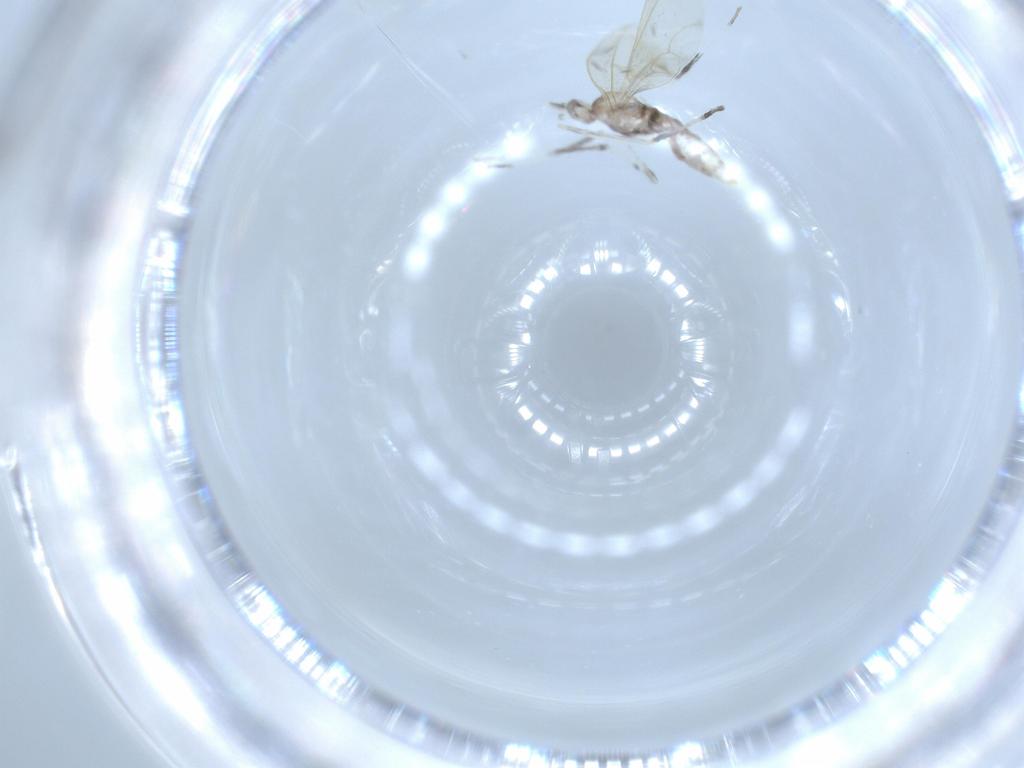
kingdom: Animalia
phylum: Arthropoda
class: Insecta
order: Diptera
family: Cecidomyiidae
